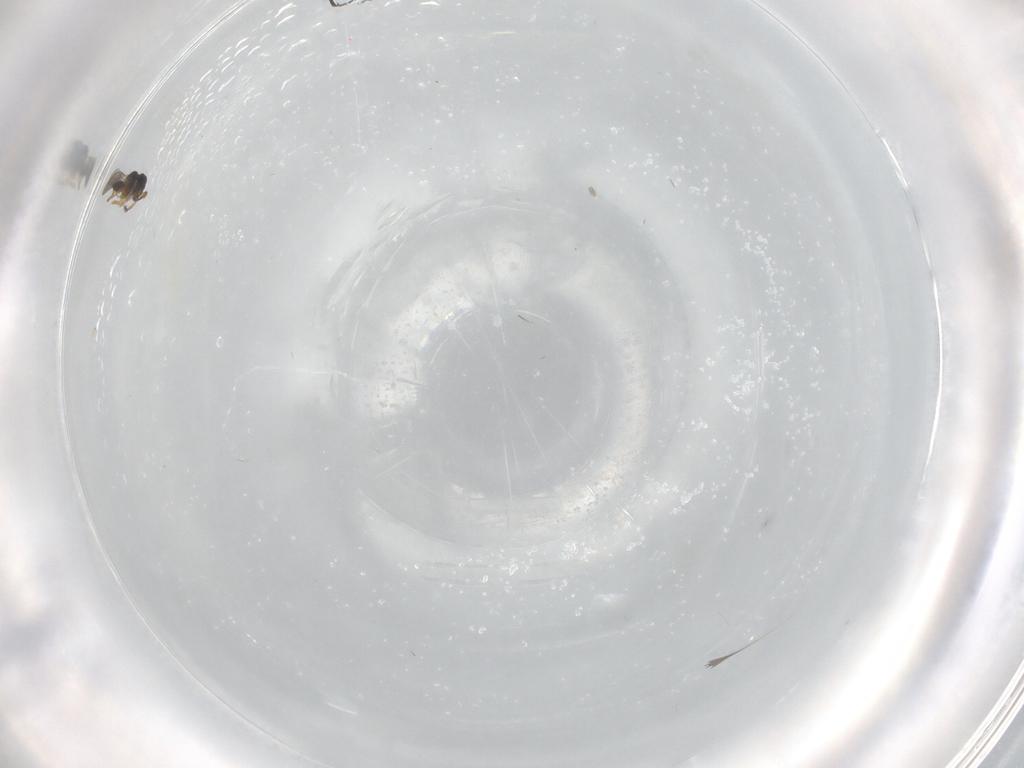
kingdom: Animalia
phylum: Arthropoda
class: Insecta
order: Hymenoptera
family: Platygastridae
